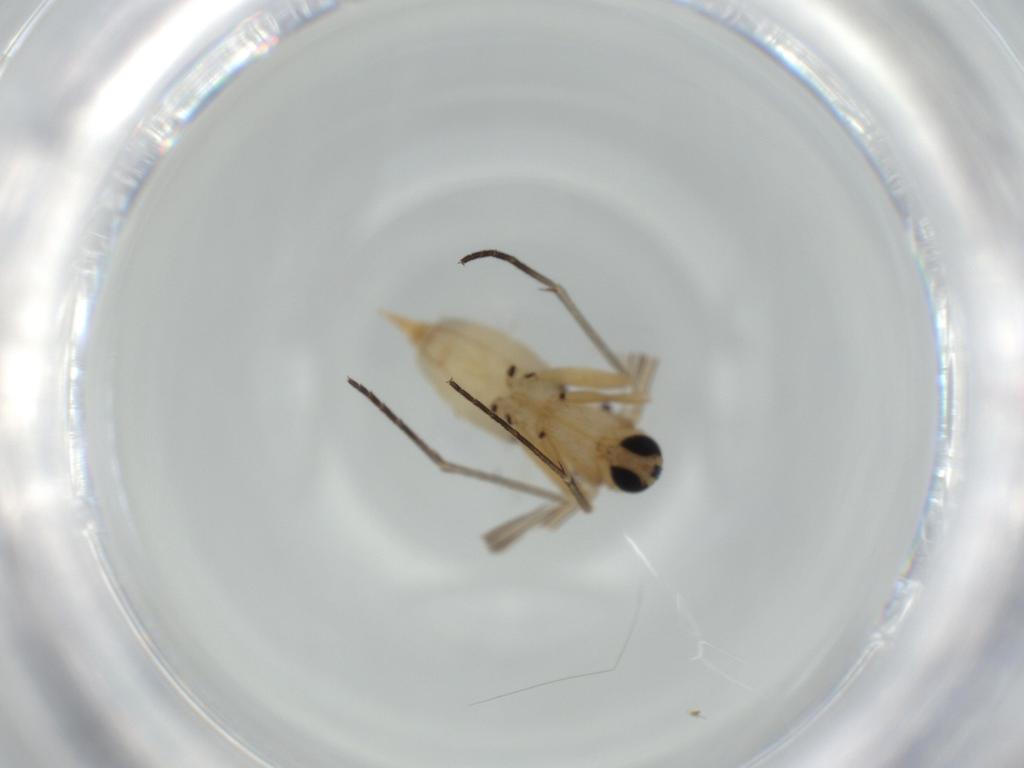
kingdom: Animalia
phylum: Arthropoda
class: Insecta
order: Diptera
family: Sciaridae
